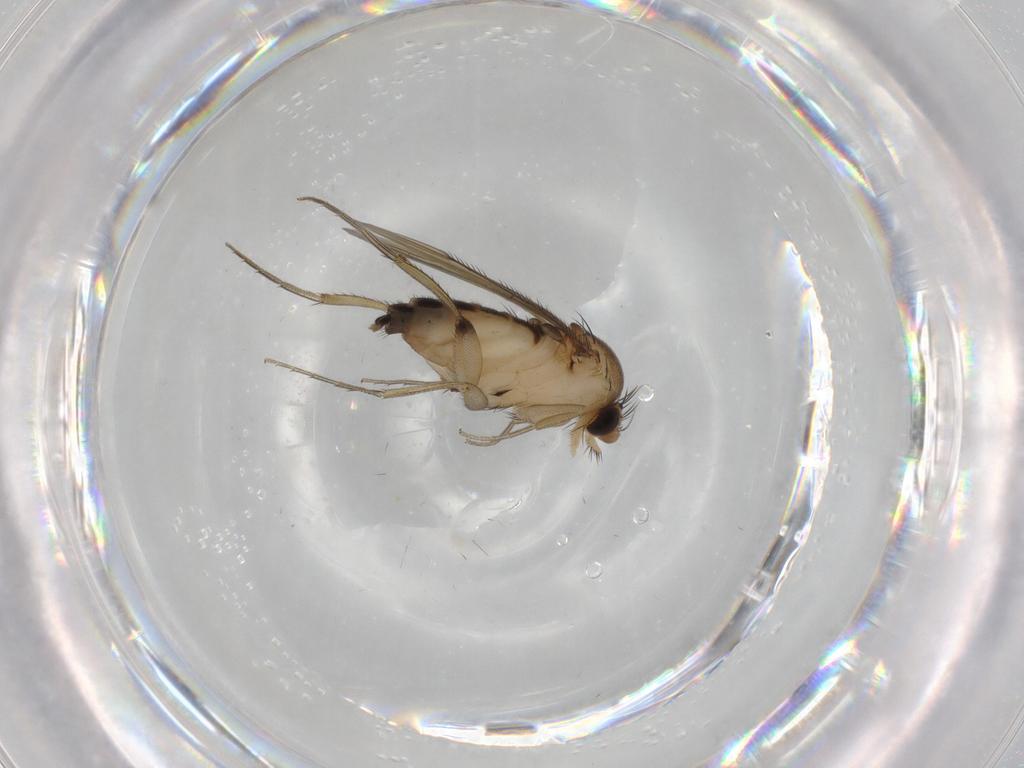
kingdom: Animalia
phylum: Arthropoda
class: Insecta
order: Diptera
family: Phoridae
